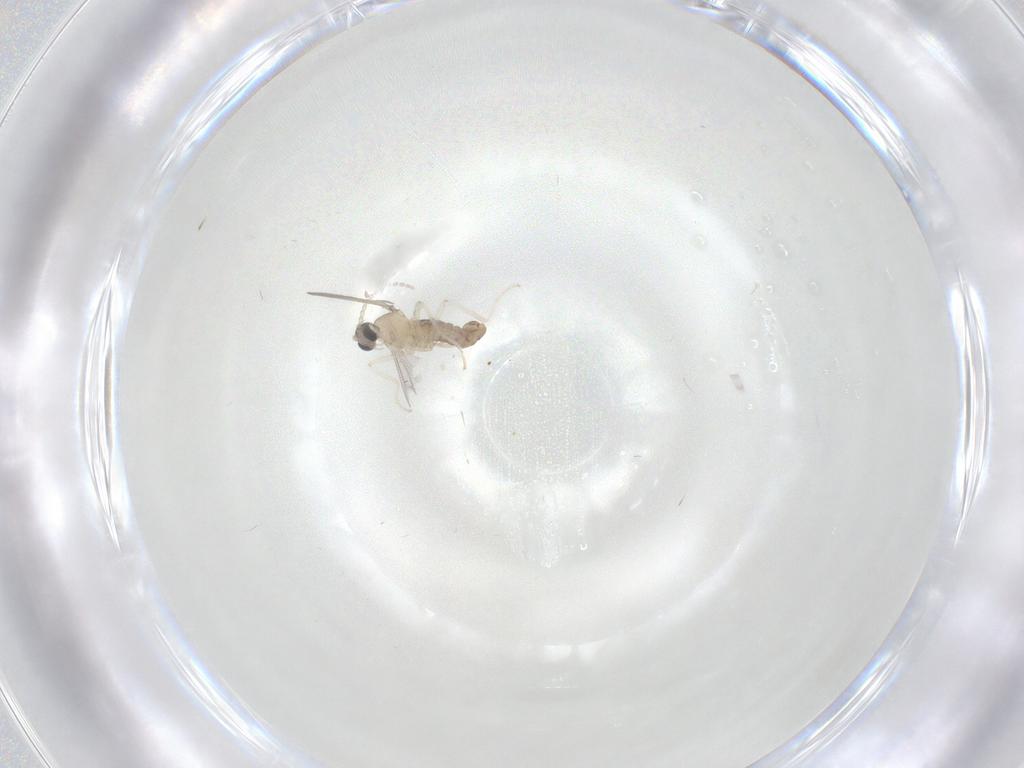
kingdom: Animalia
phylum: Arthropoda
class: Insecta
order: Diptera
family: Cecidomyiidae
